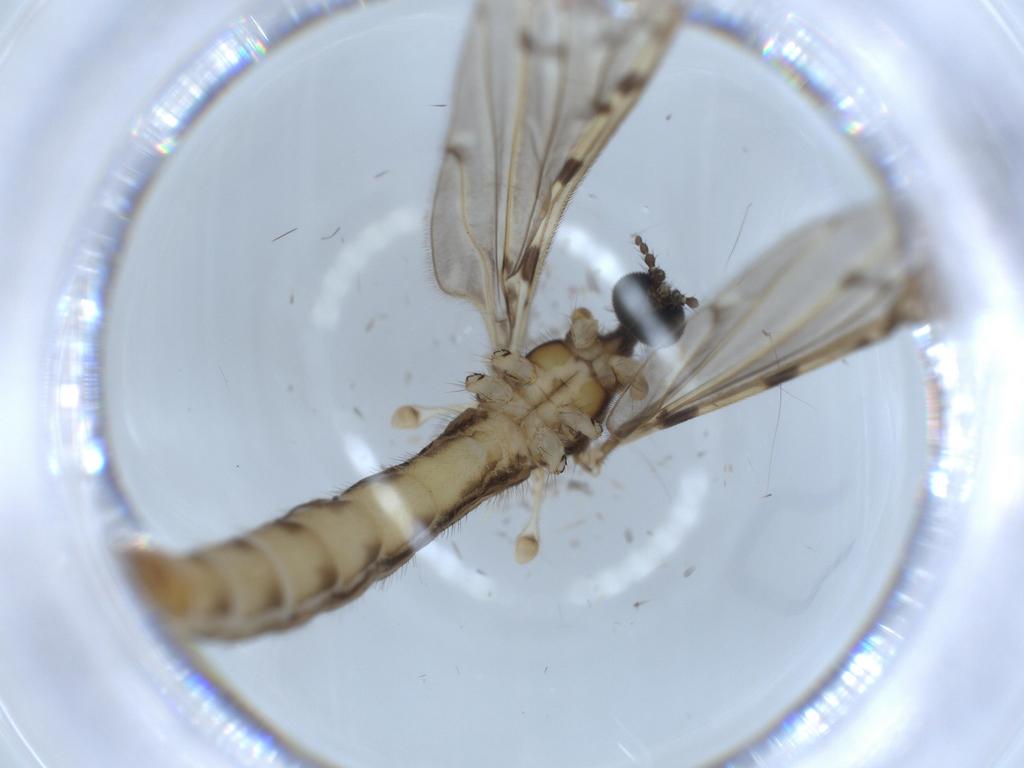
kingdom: Animalia
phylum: Arthropoda
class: Insecta
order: Diptera
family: Limoniidae
